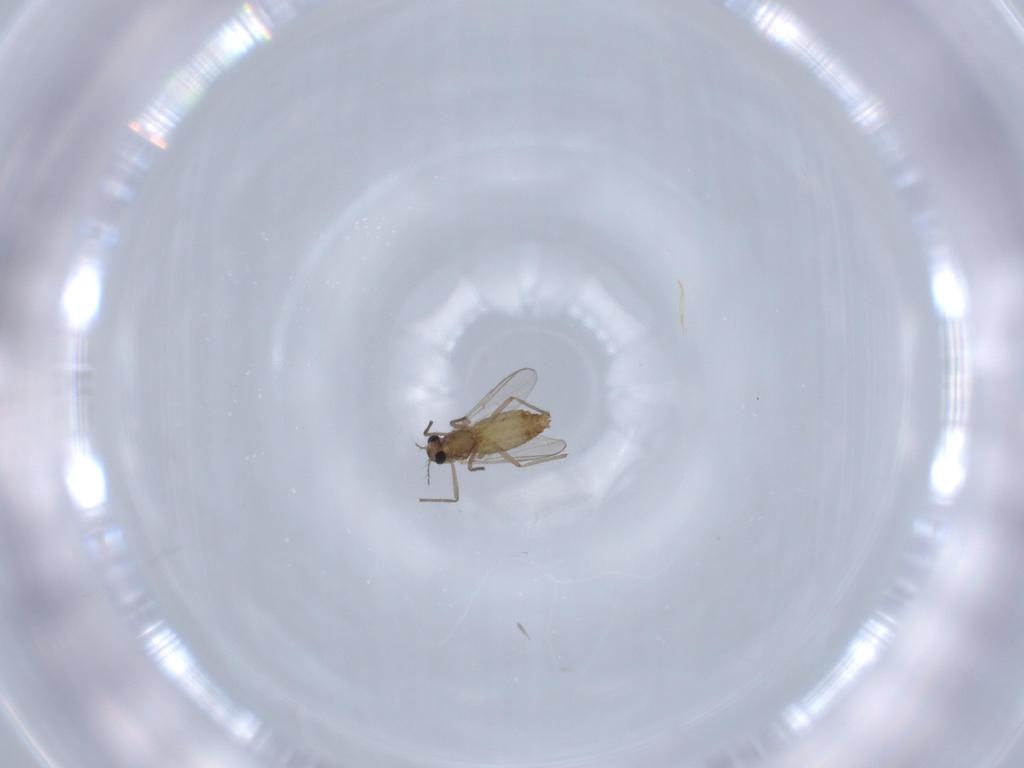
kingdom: Animalia
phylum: Arthropoda
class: Insecta
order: Diptera
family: Chironomidae
